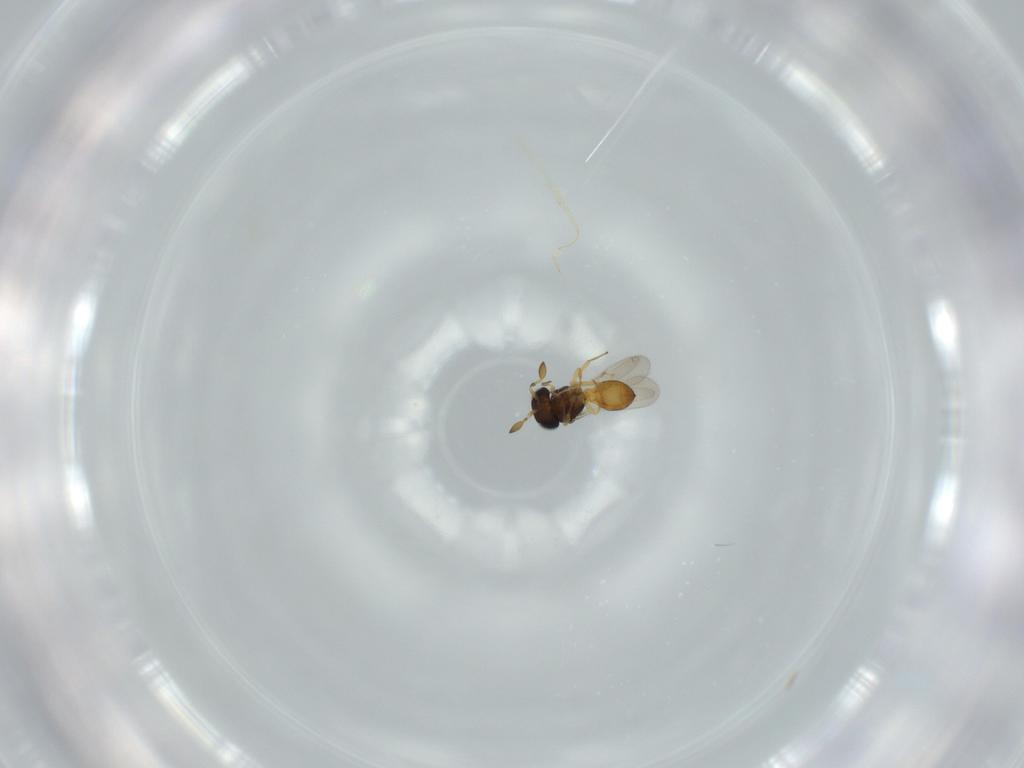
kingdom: Animalia
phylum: Arthropoda
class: Insecta
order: Hymenoptera
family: Scelionidae
